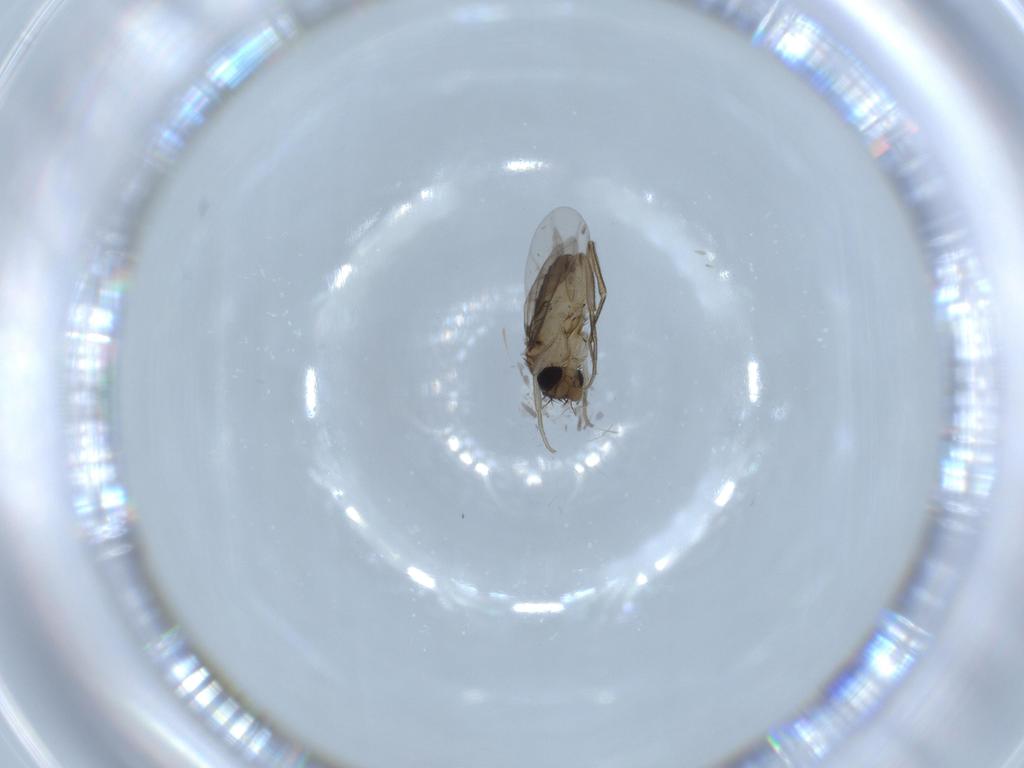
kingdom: Animalia
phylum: Arthropoda
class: Insecta
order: Diptera
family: Phoridae
